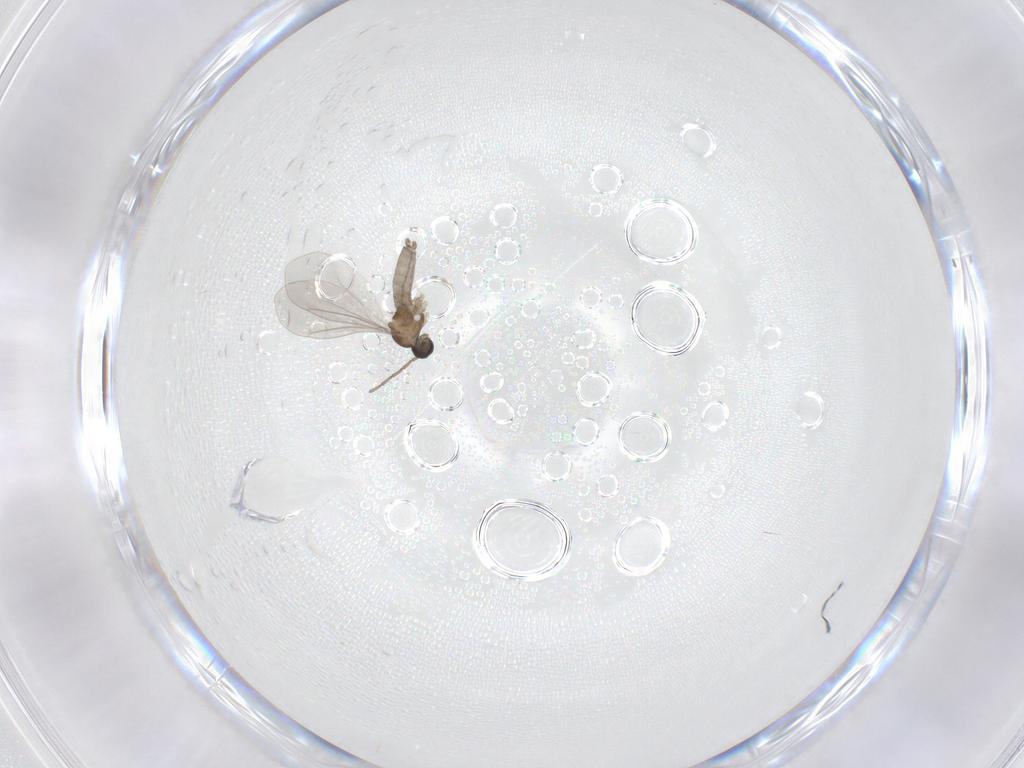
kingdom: Animalia
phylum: Arthropoda
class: Insecta
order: Diptera
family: Cecidomyiidae
